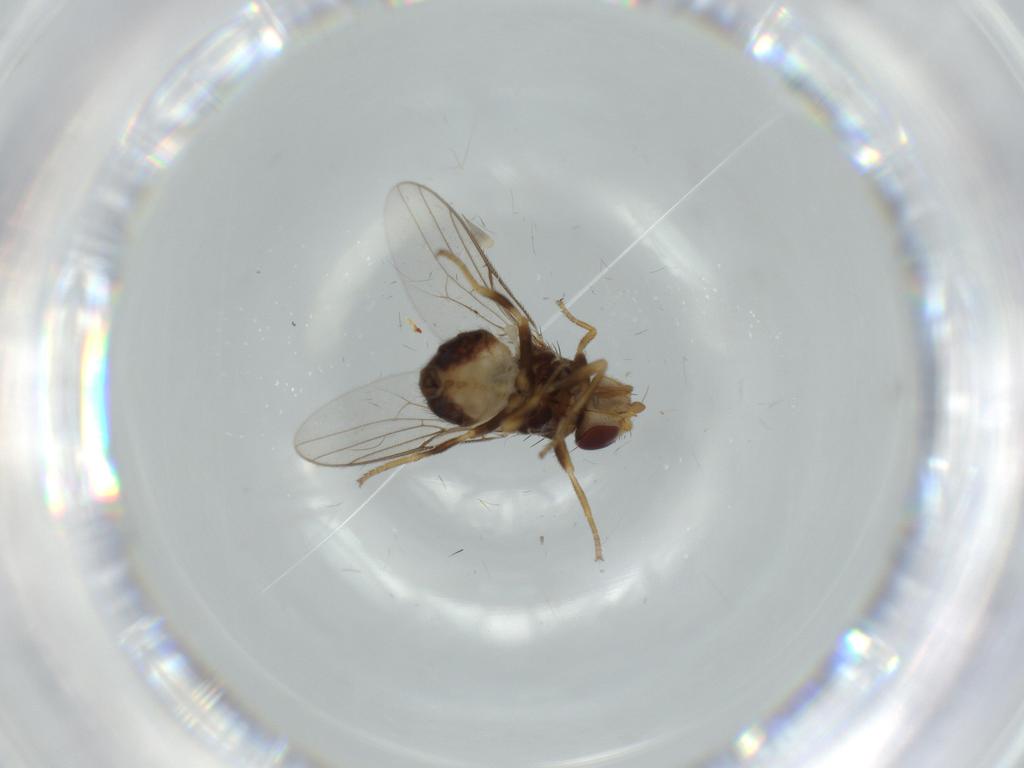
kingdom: Animalia
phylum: Arthropoda
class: Insecta
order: Diptera
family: Chloropidae
